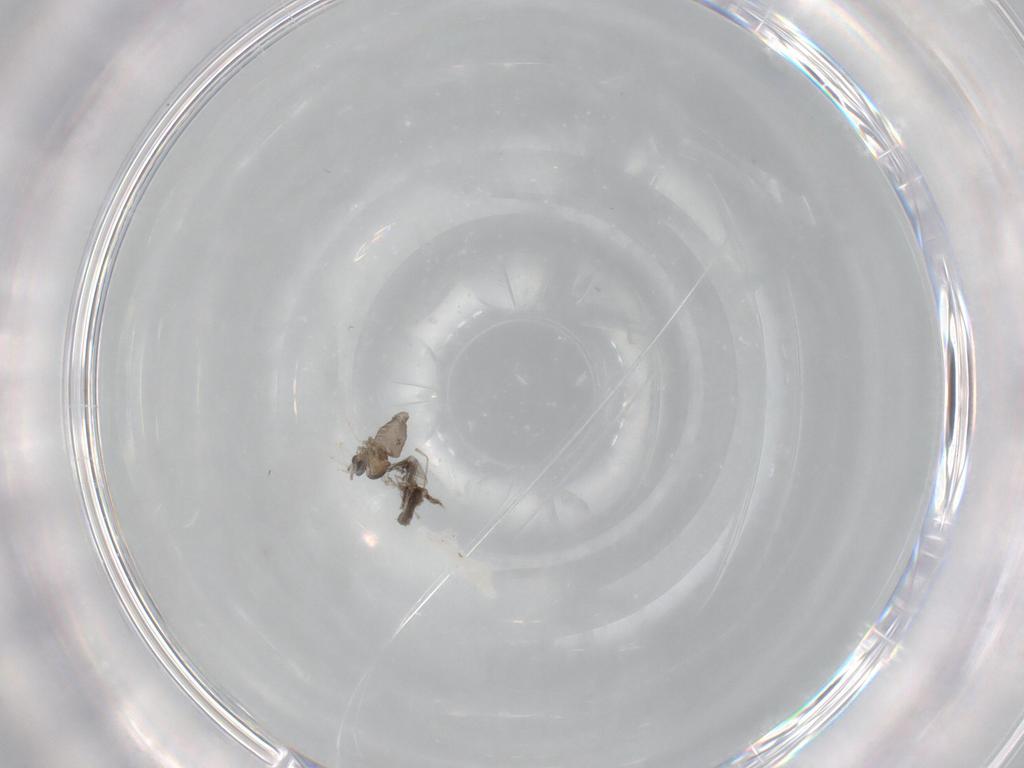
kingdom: Animalia
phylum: Arthropoda
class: Insecta
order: Diptera
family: Cecidomyiidae
